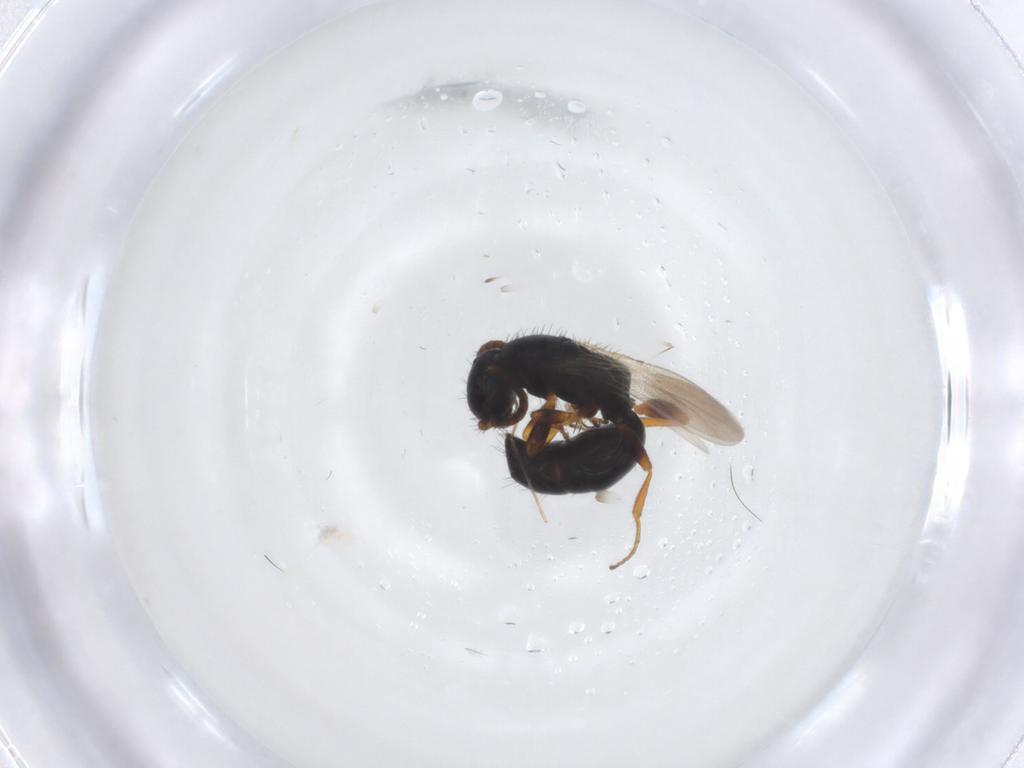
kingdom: Animalia
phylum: Arthropoda
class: Insecta
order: Hymenoptera
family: Bethylidae
